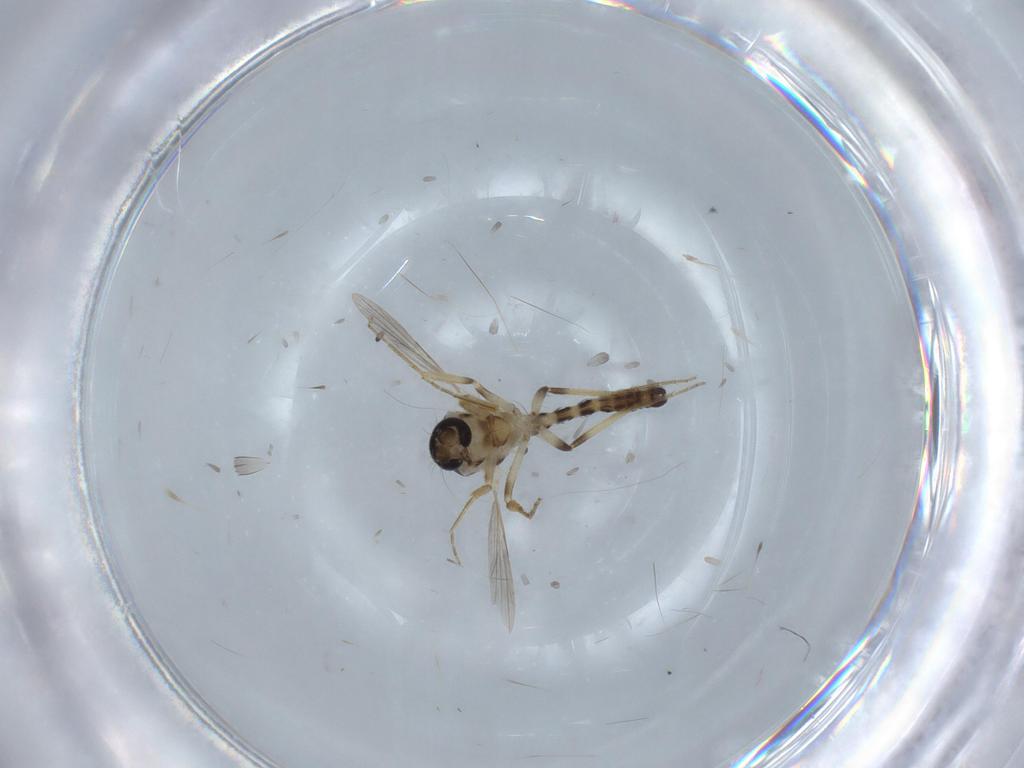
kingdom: Animalia
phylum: Arthropoda
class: Insecta
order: Diptera
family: Ceratopogonidae
